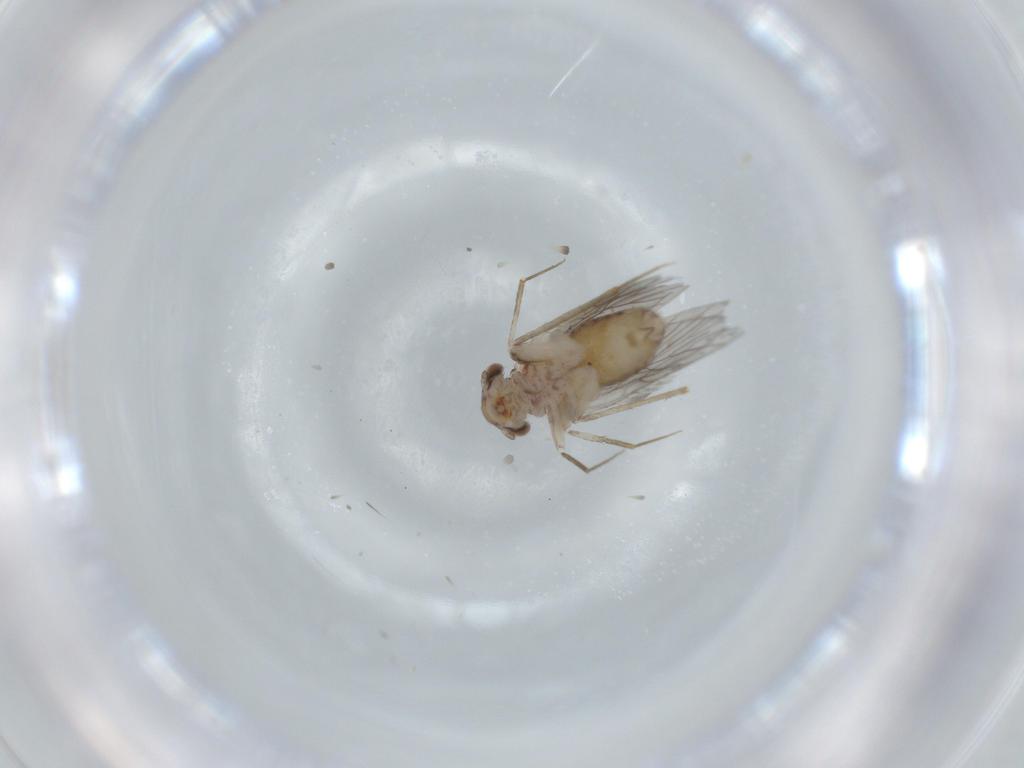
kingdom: Animalia
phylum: Arthropoda
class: Insecta
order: Psocodea
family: Lepidopsocidae
